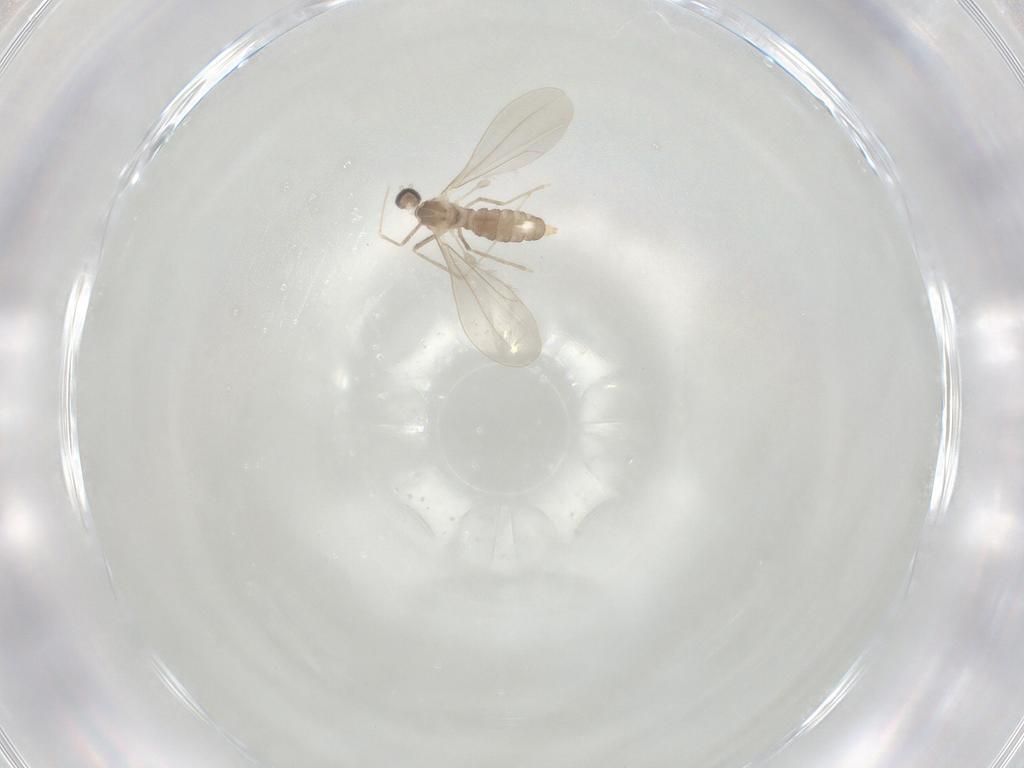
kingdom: Animalia
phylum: Arthropoda
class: Insecta
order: Diptera
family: Cecidomyiidae
